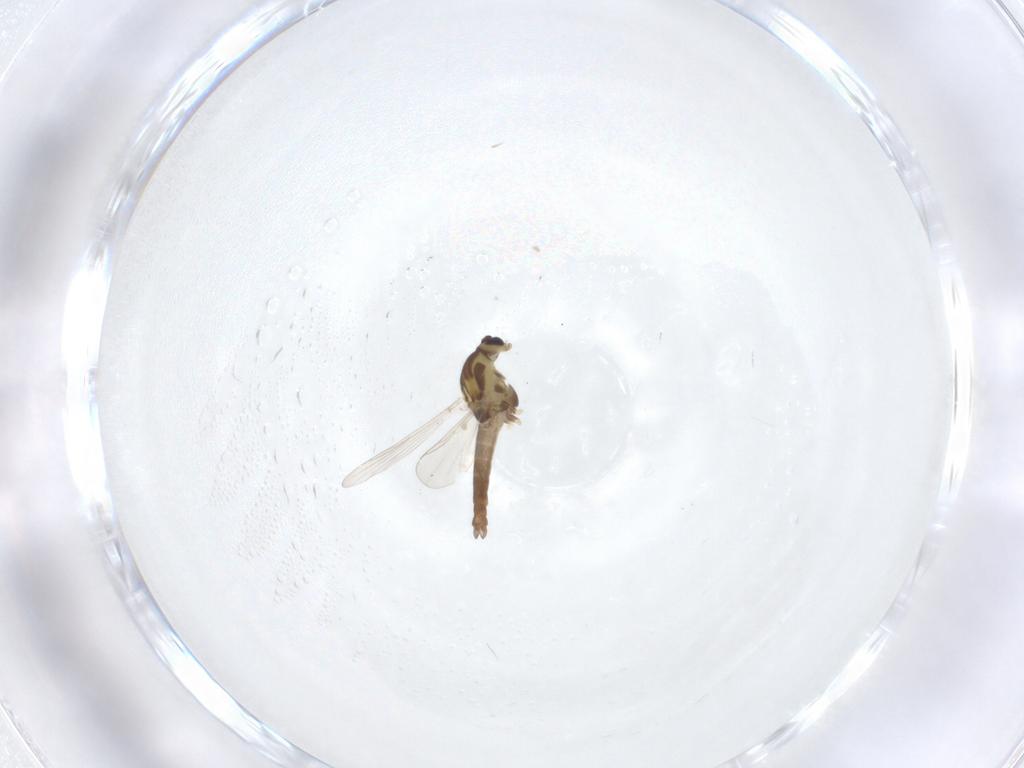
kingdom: Animalia
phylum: Arthropoda
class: Insecta
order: Diptera
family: Chironomidae
